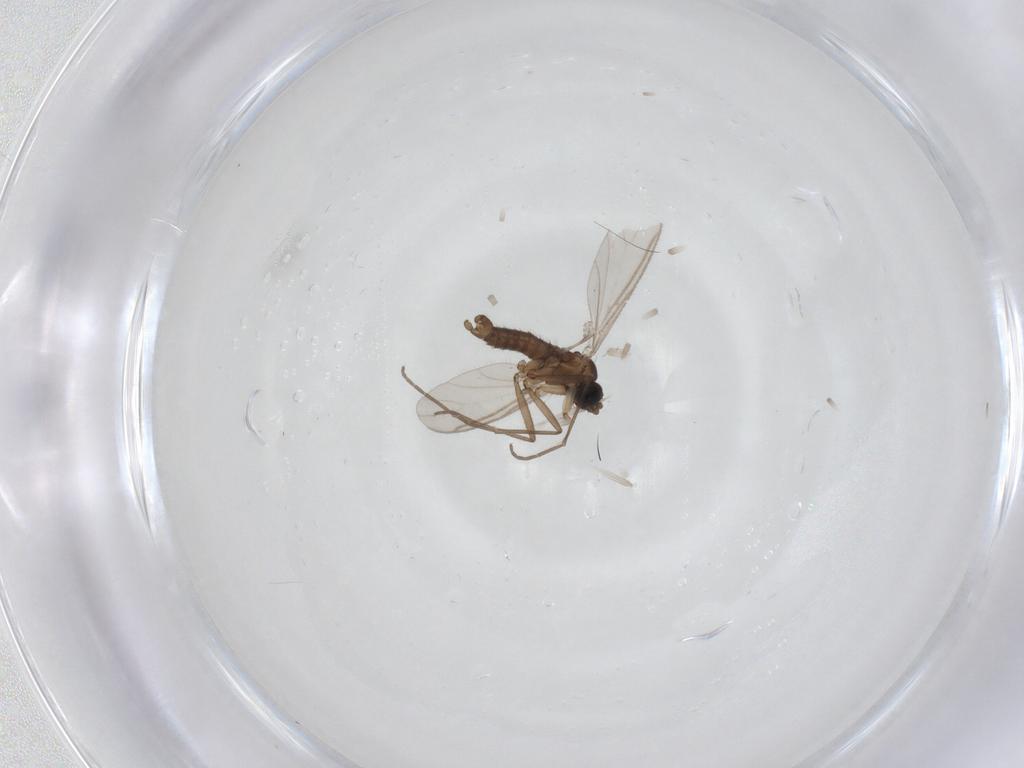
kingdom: Animalia
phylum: Arthropoda
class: Insecta
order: Diptera
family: Sciaridae
